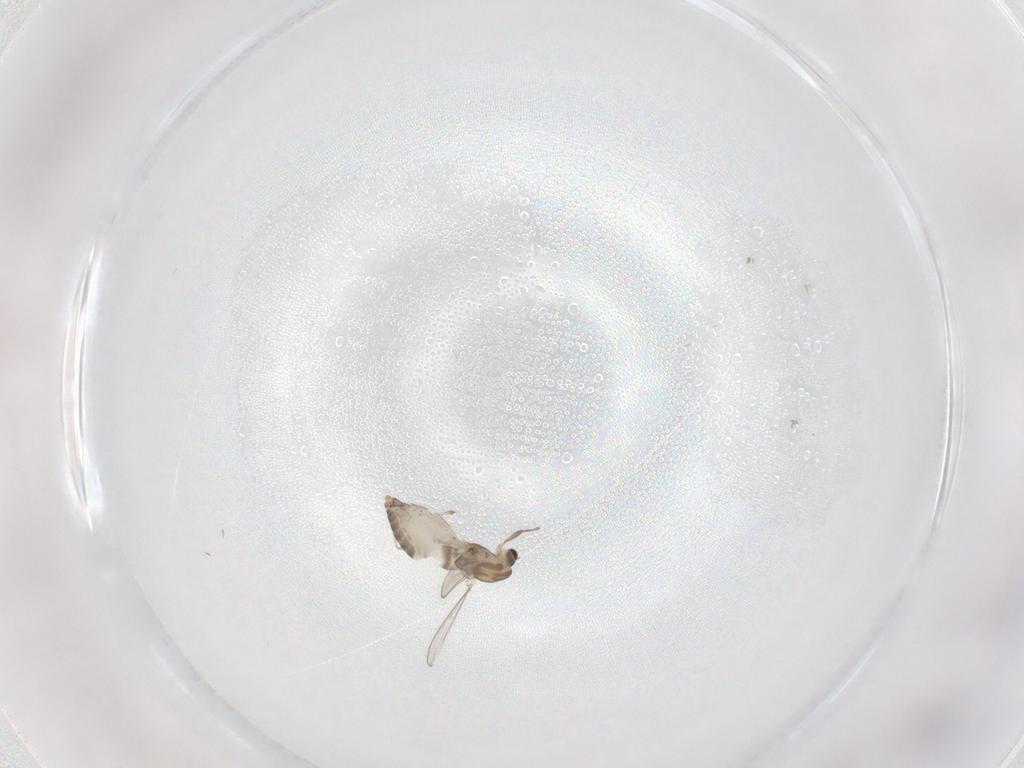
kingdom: Animalia
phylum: Arthropoda
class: Insecta
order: Diptera
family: Chironomidae
